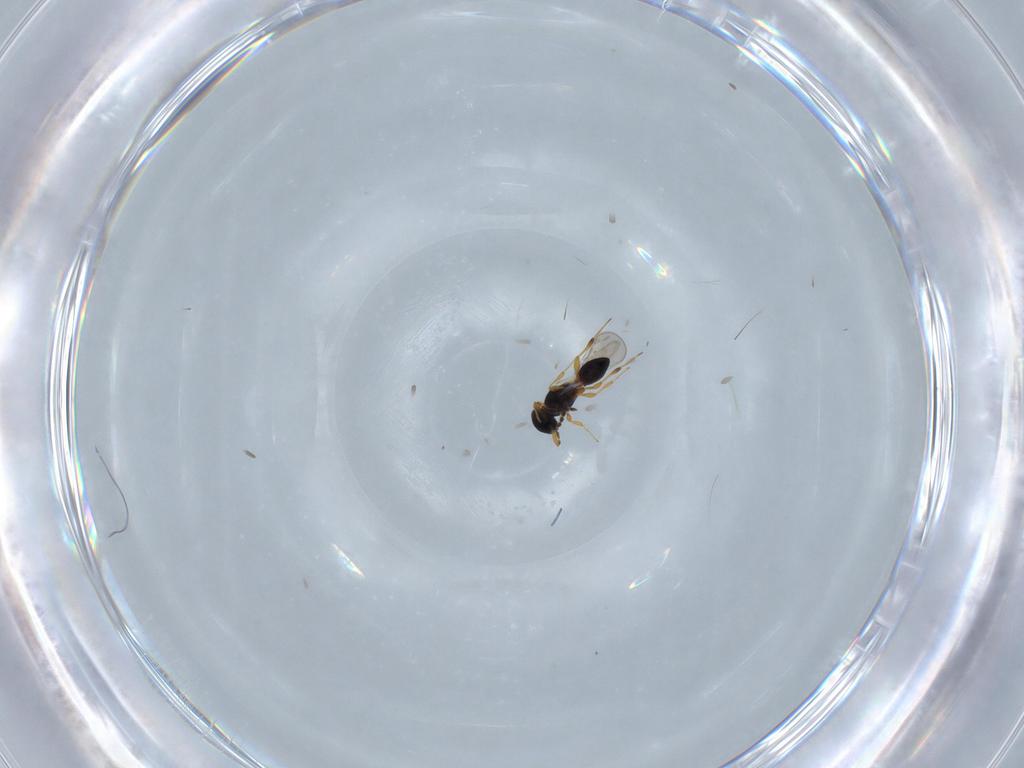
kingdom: Animalia
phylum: Arthropoda
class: Insecta
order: Hymenoptera
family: Platygastridae
